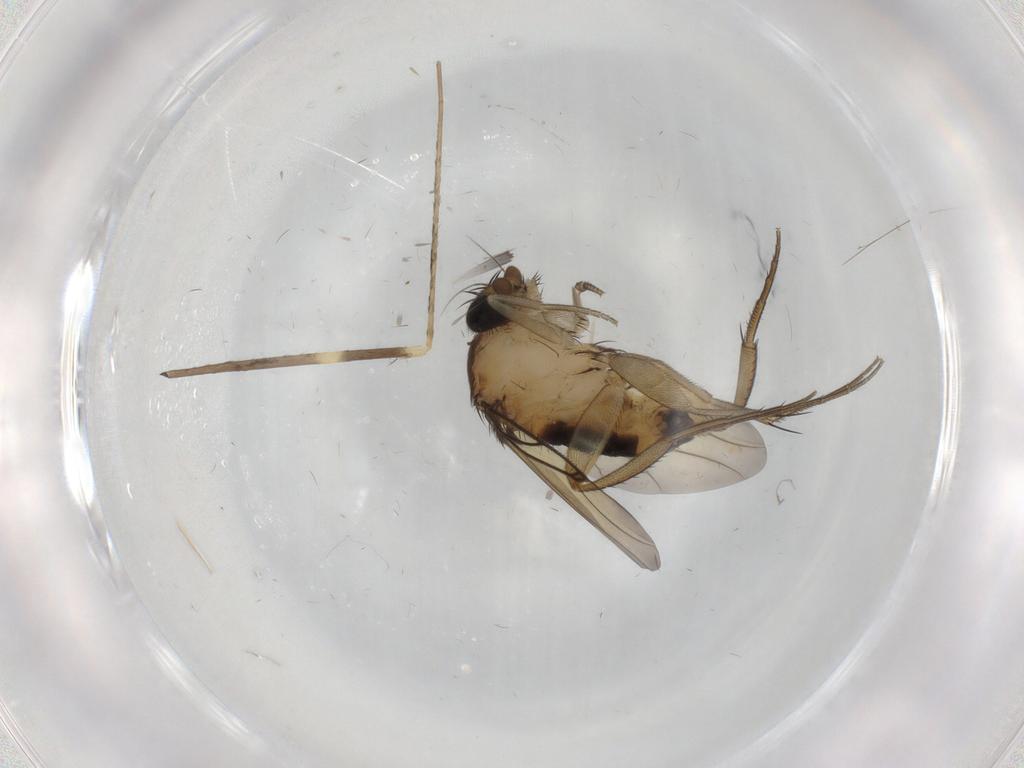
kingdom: Animalia
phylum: Arthropoda
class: Insecta
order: Diptera
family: Limoniidae
